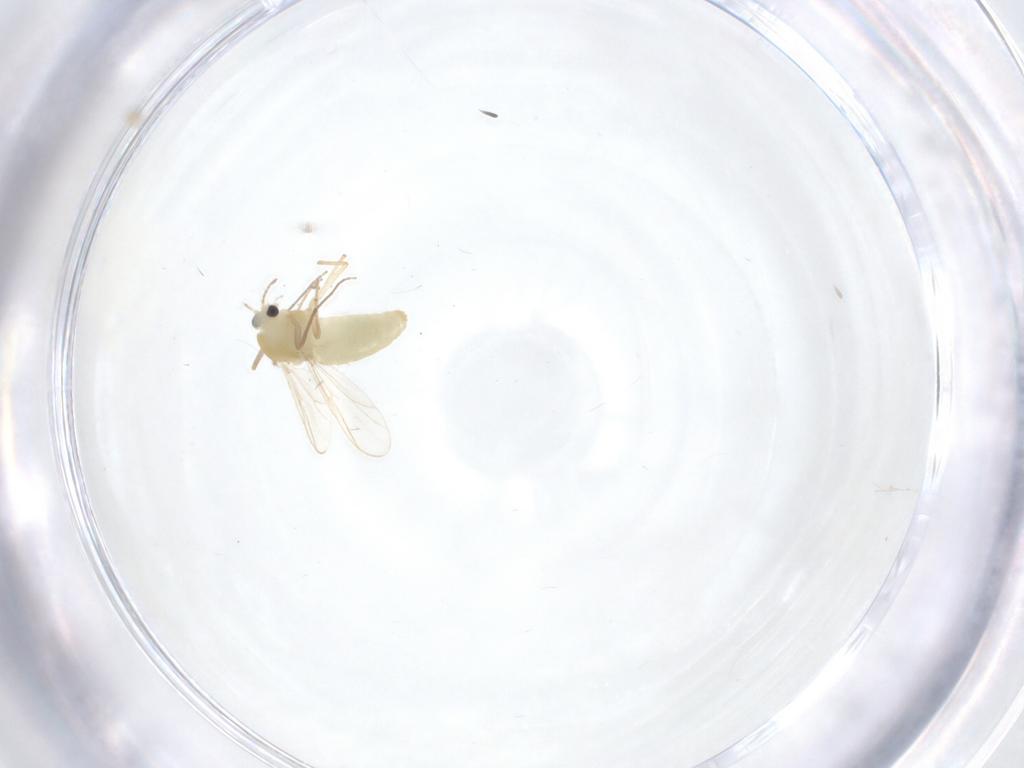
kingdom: Animalia
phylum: Arthropoda
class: Insecta
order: Diptera
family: Chironomidae
